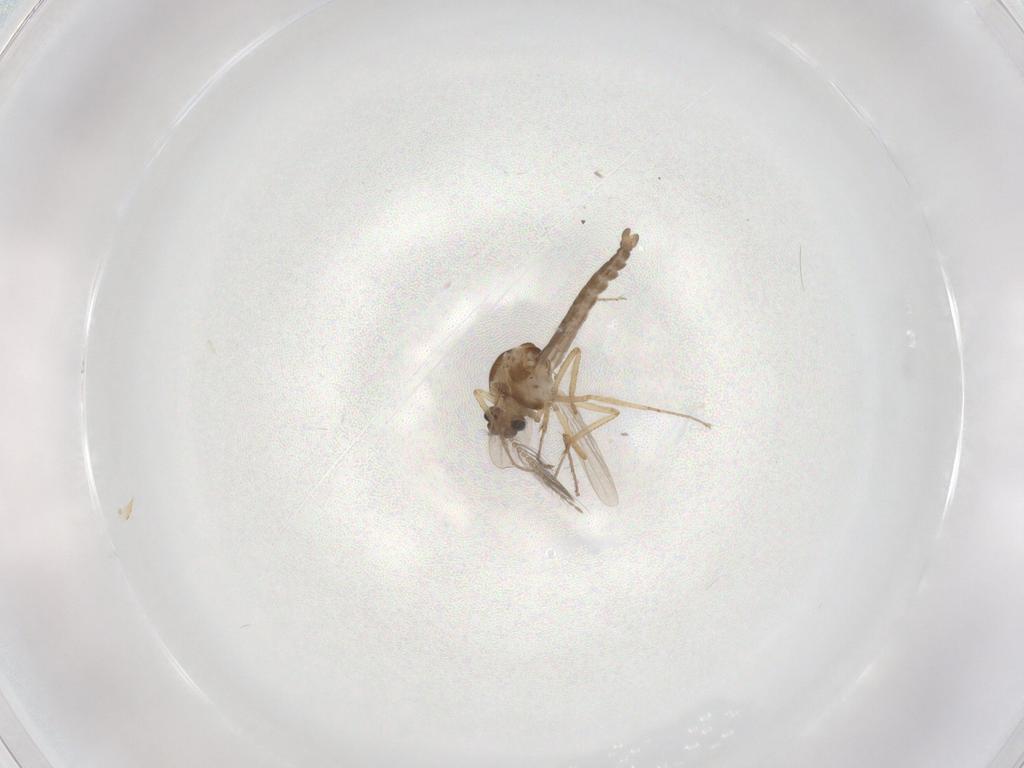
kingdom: Animalia
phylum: Arthropoda
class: Insecta
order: Diptera
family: Ceratopogonidae
